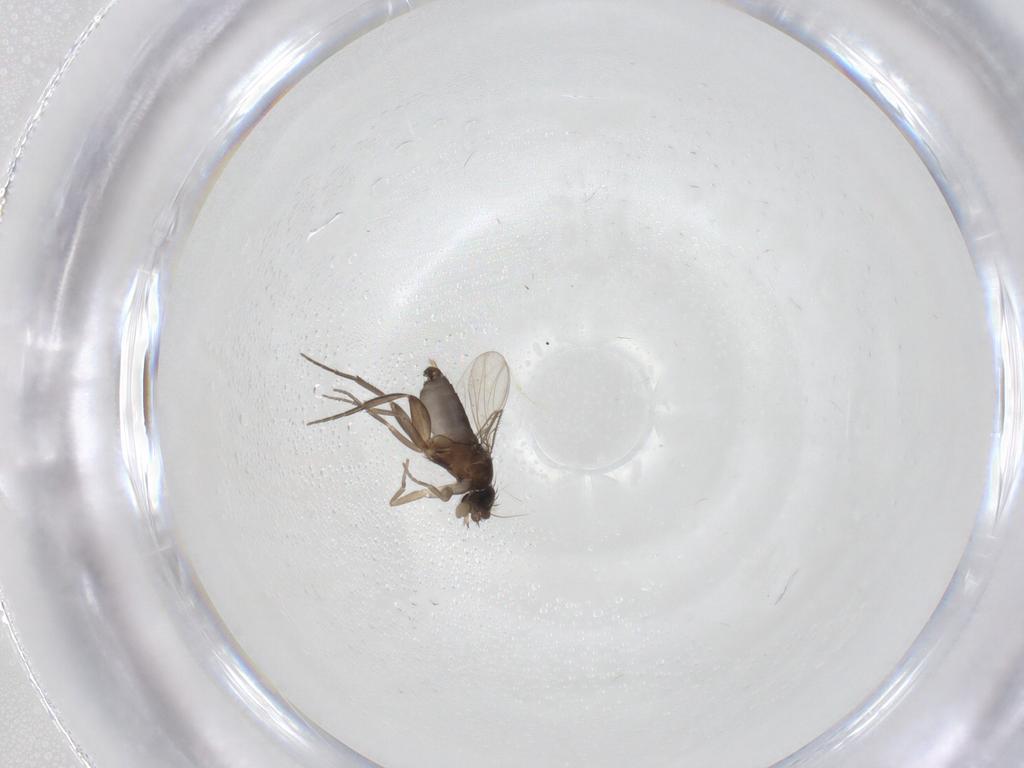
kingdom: Animalia
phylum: Arthropoda
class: Insecta
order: Diptera
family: Phoridae
